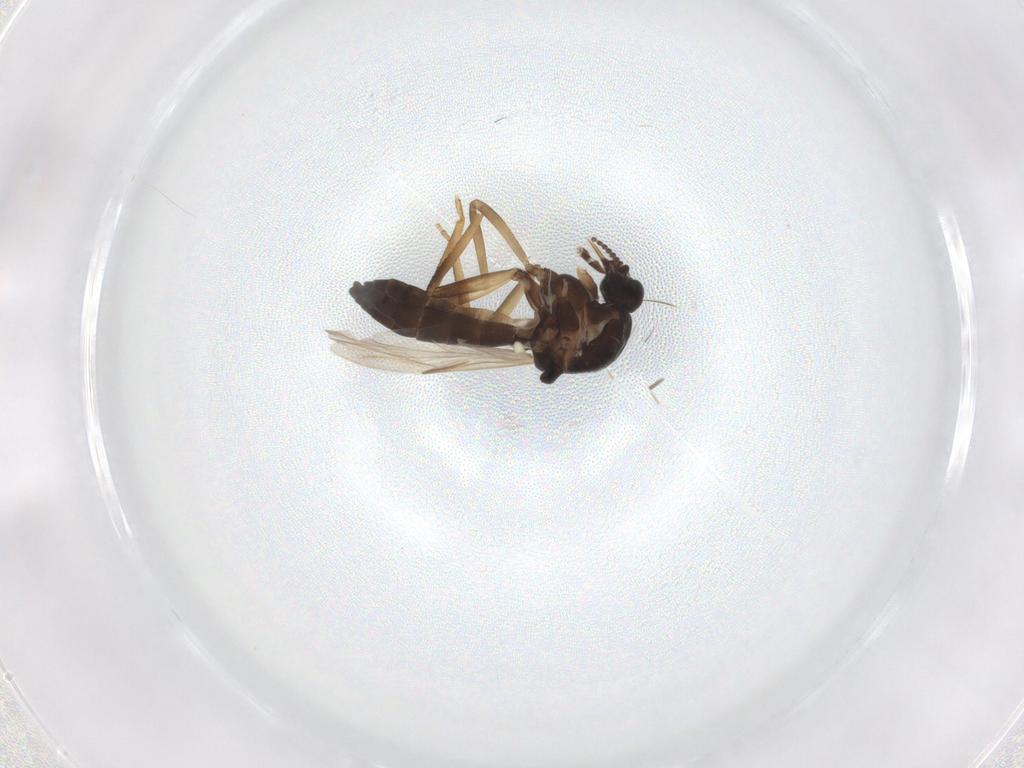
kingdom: Animalia
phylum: Arthropoda
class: Insecta
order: Diptera
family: Ceratopogonidae
